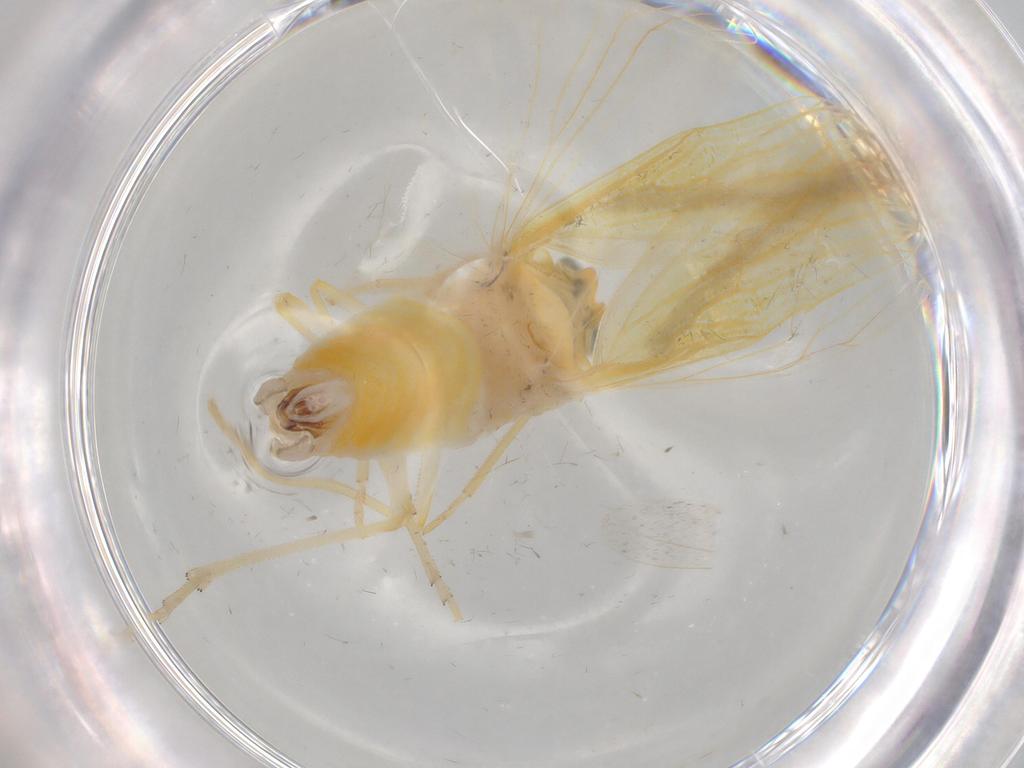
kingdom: Animalia
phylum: Arthropoda
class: Insecta
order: Hemiptera
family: Derbidae
